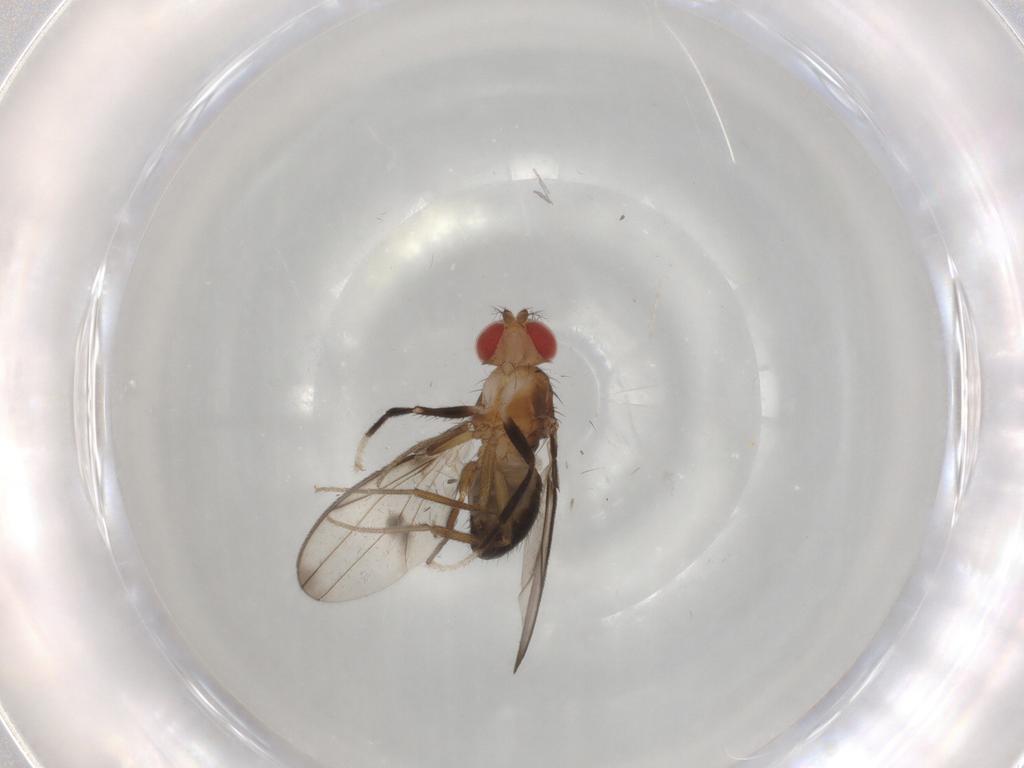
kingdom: Animalia
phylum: Arthropoda
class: Insecta
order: Diptera
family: Drosophilidae
